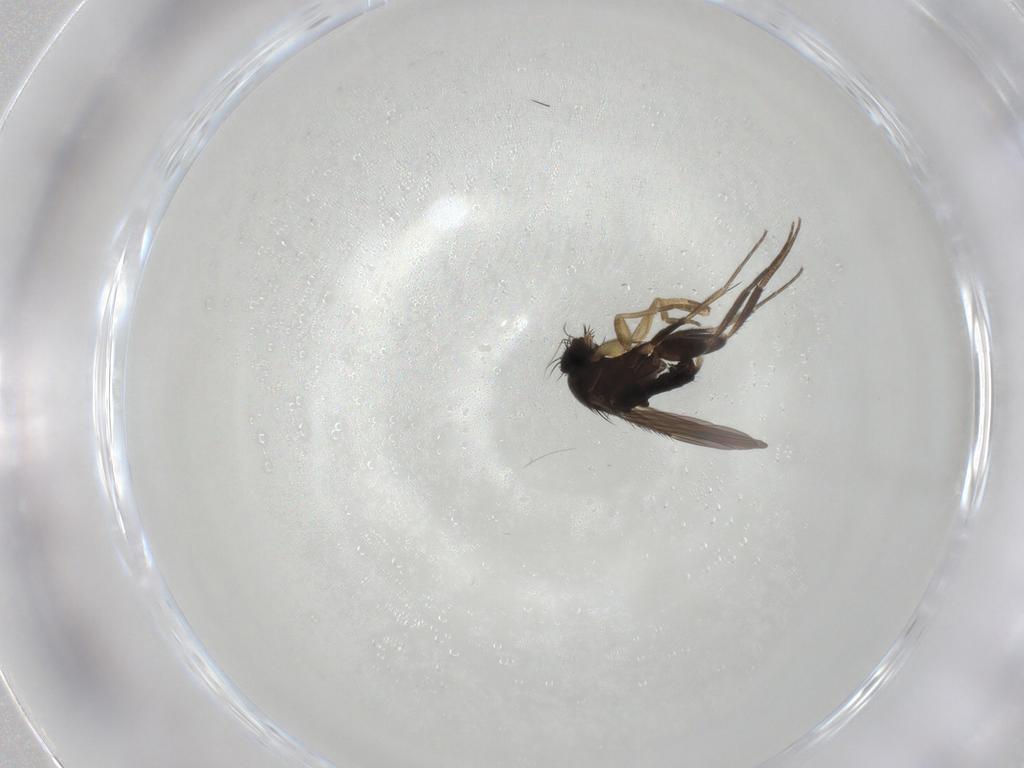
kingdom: Animalia
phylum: Arthropoda
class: Insecta
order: Diptera
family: Phoridae
